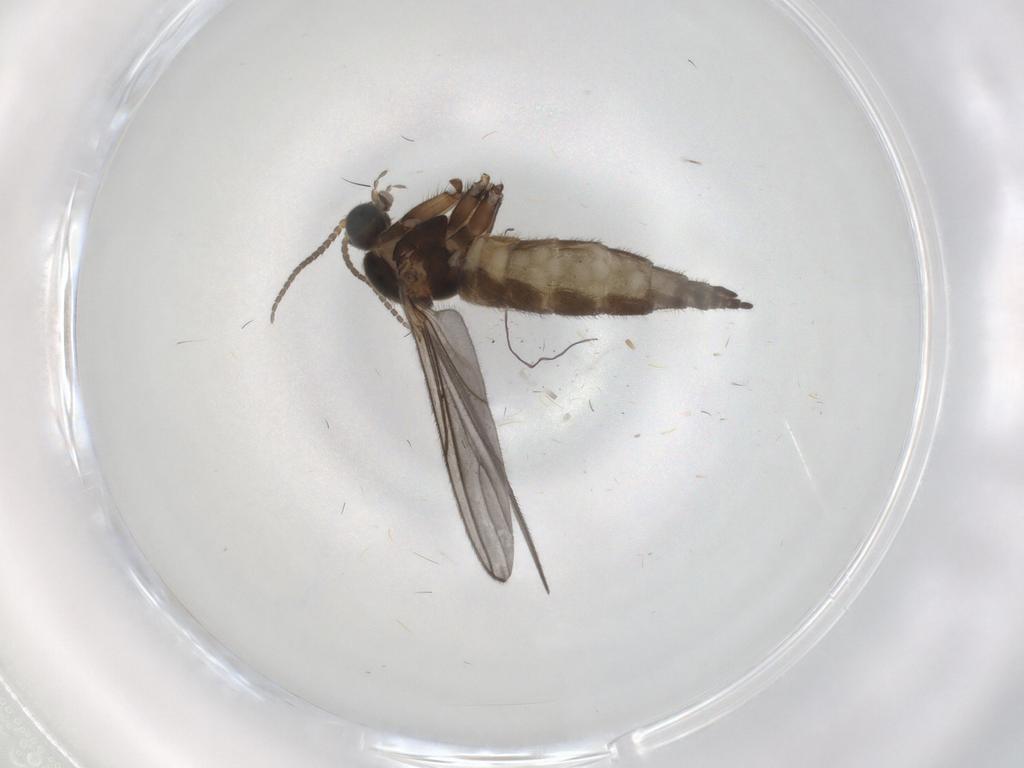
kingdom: Animalia
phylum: Arthropoda
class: Insecta
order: Diptera
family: Sciaridae
